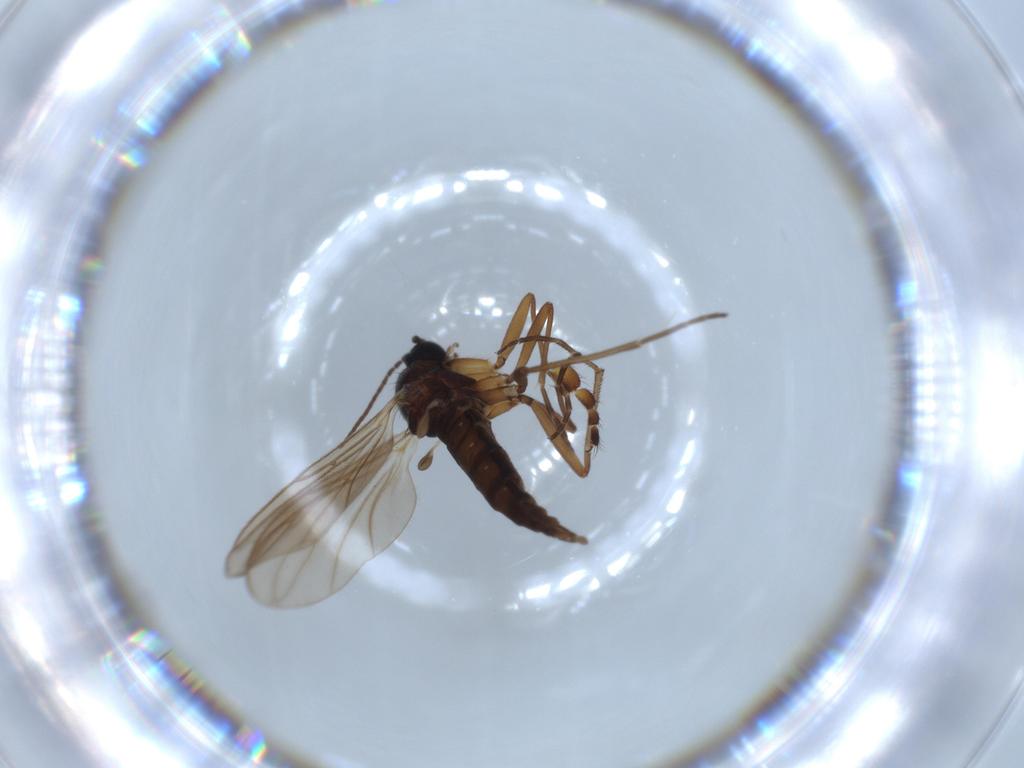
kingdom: Animalia
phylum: Arthropoda
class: Insecta
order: Diptera
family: Sciaridae
